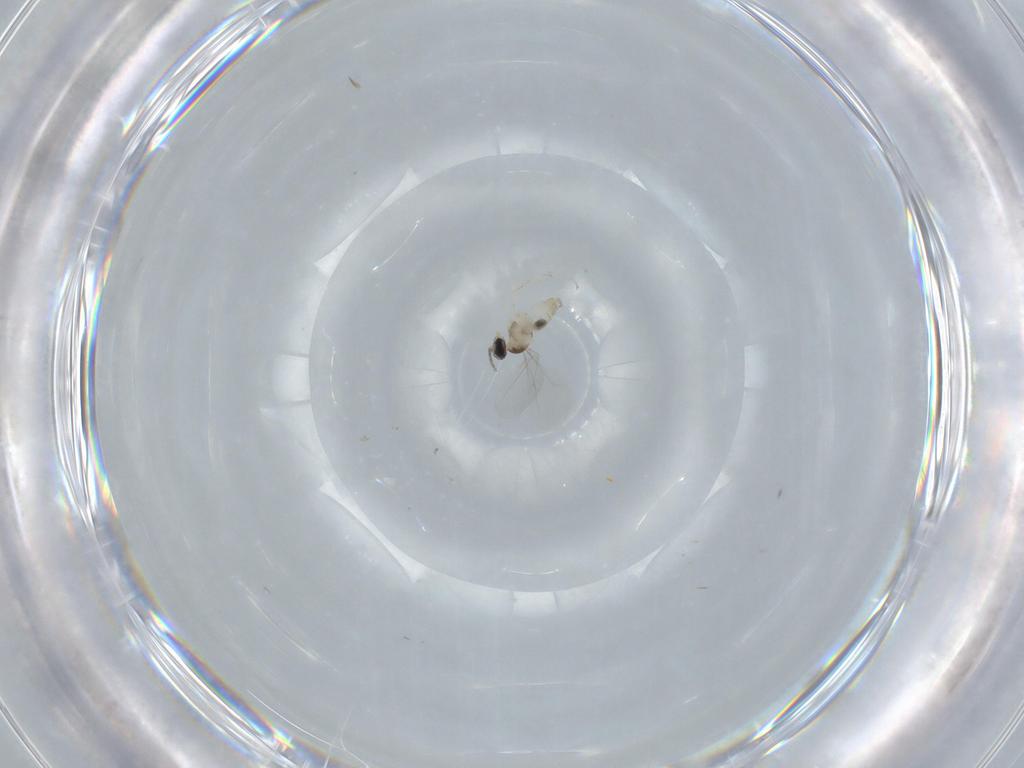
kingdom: Animalia
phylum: Arthropoda
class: Insecta
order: Diptera
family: Cecidomyiidae
